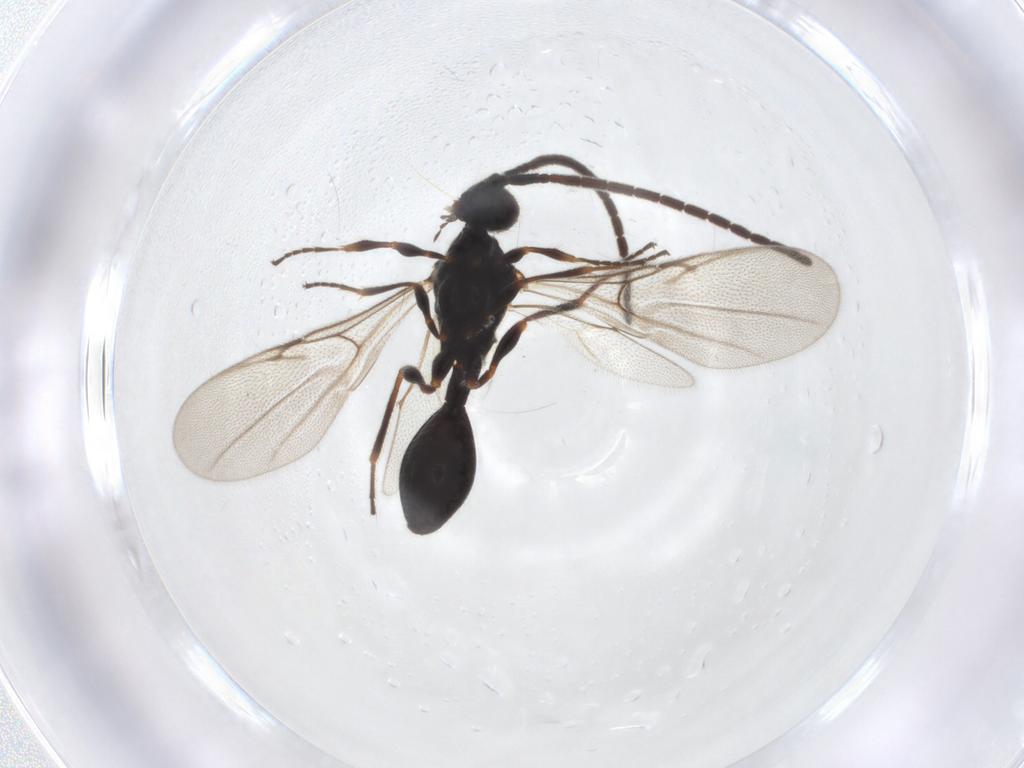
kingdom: Animalia
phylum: Arthropoda
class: Insecta
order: Hymenoptera
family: Diapriidae
